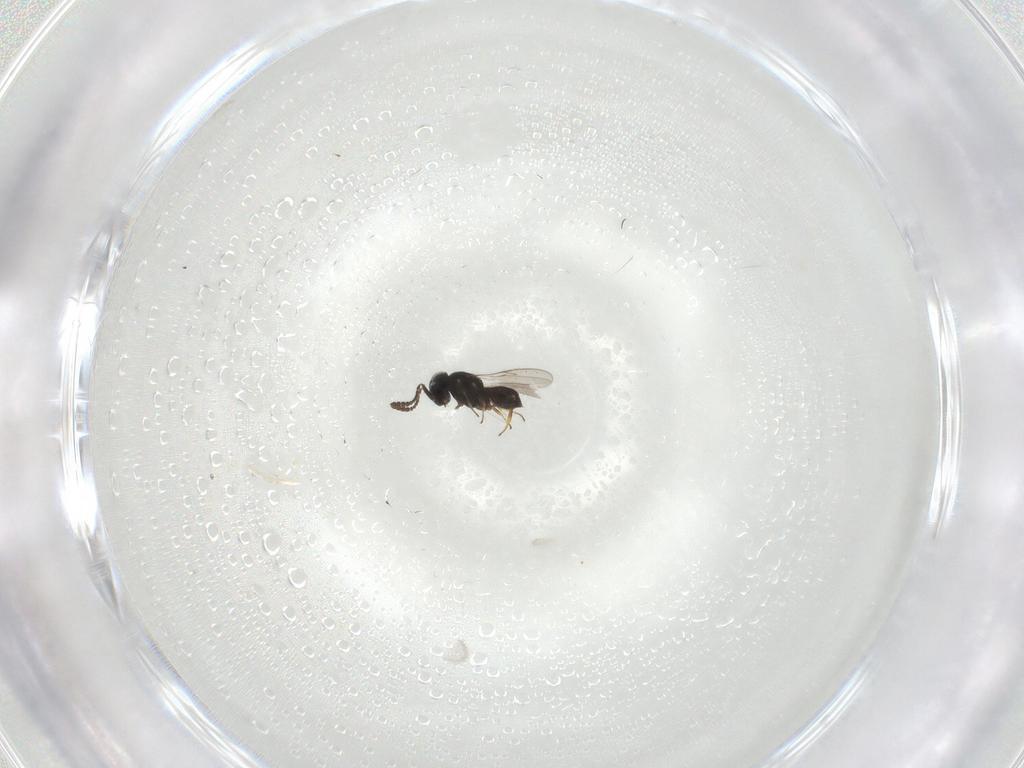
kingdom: Animalia
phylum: Arthropoda
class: Insecta
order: Hymenoptera
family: Scelionidae
